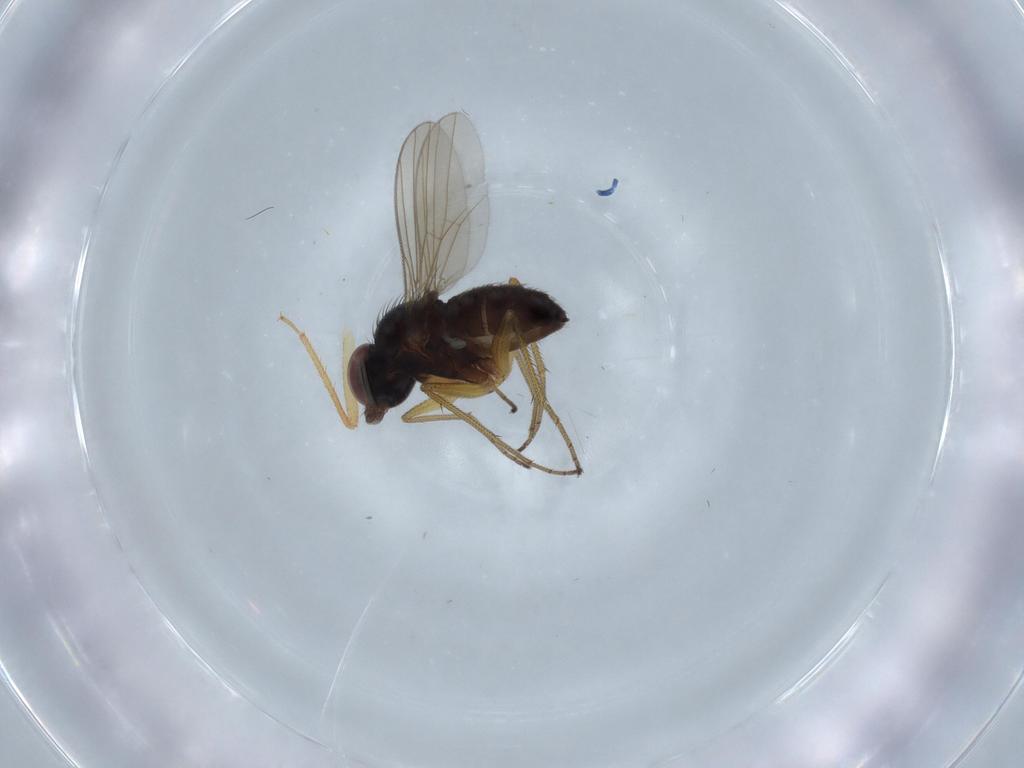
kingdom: Animalia
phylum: Arthropoda
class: Insecta
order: Diptera
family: Dolichopodidae
